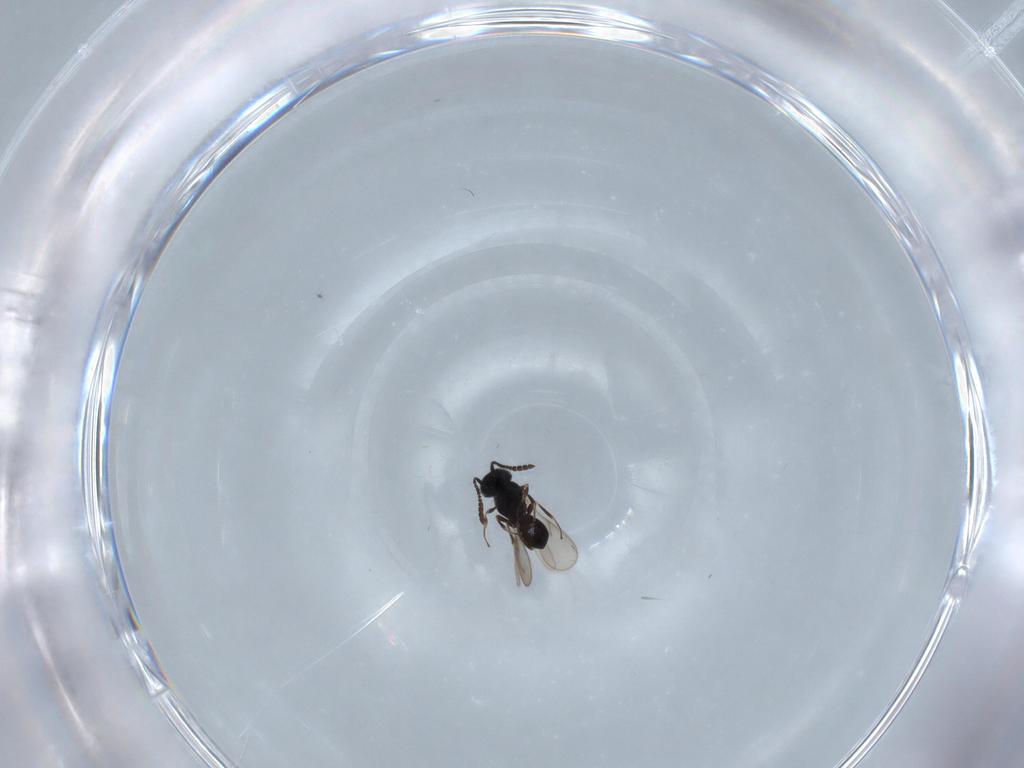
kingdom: Animalia
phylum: Arthropoda
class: Insecta
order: Hymenoptera
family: Scelionidae
